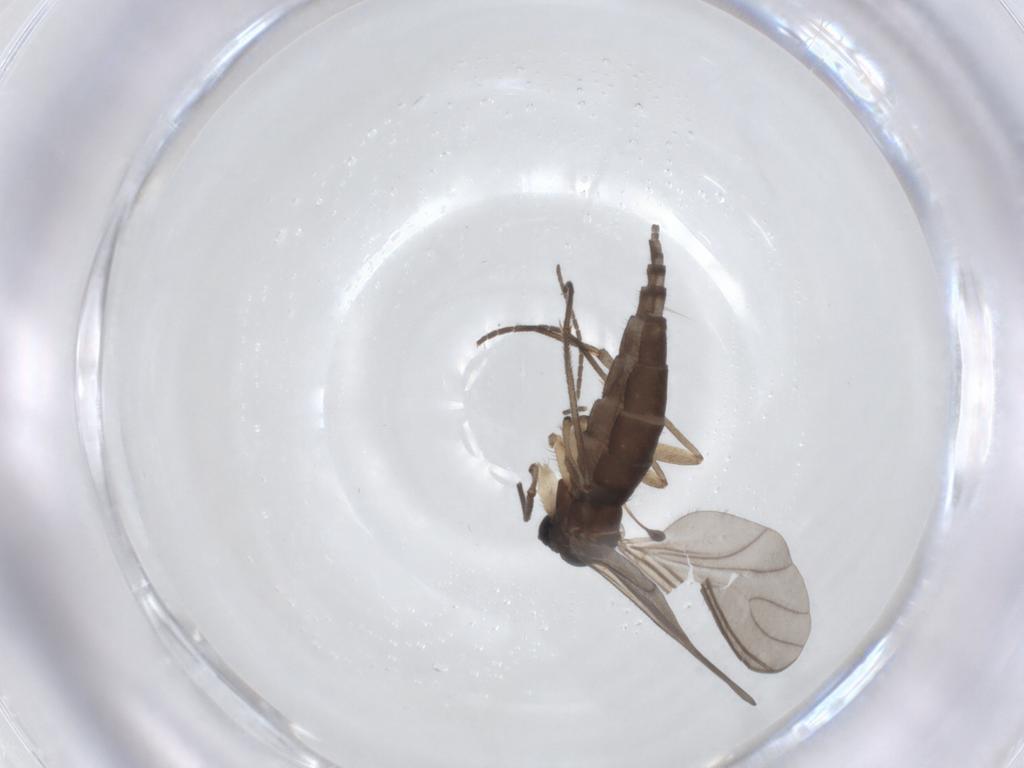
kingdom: Animalia
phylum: Arthropoda
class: Insecta
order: Diptera
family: Sciaridae
